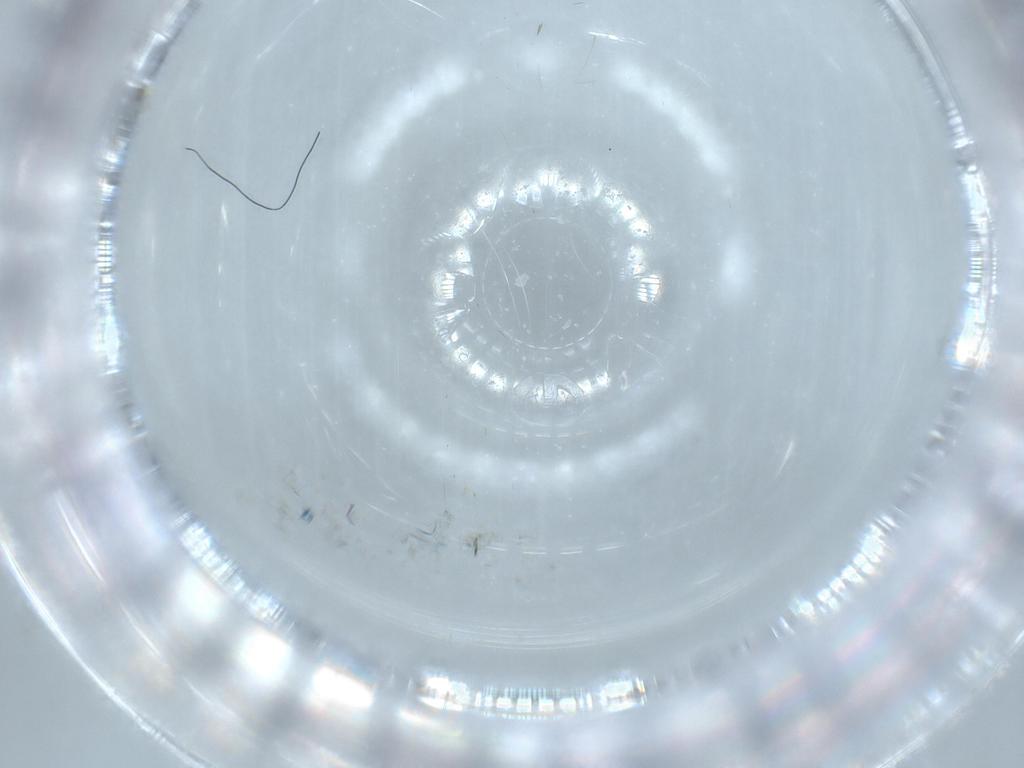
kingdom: Animalia
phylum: Arthropoda
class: Insecta
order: Diptera
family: Cecidomyiidae
